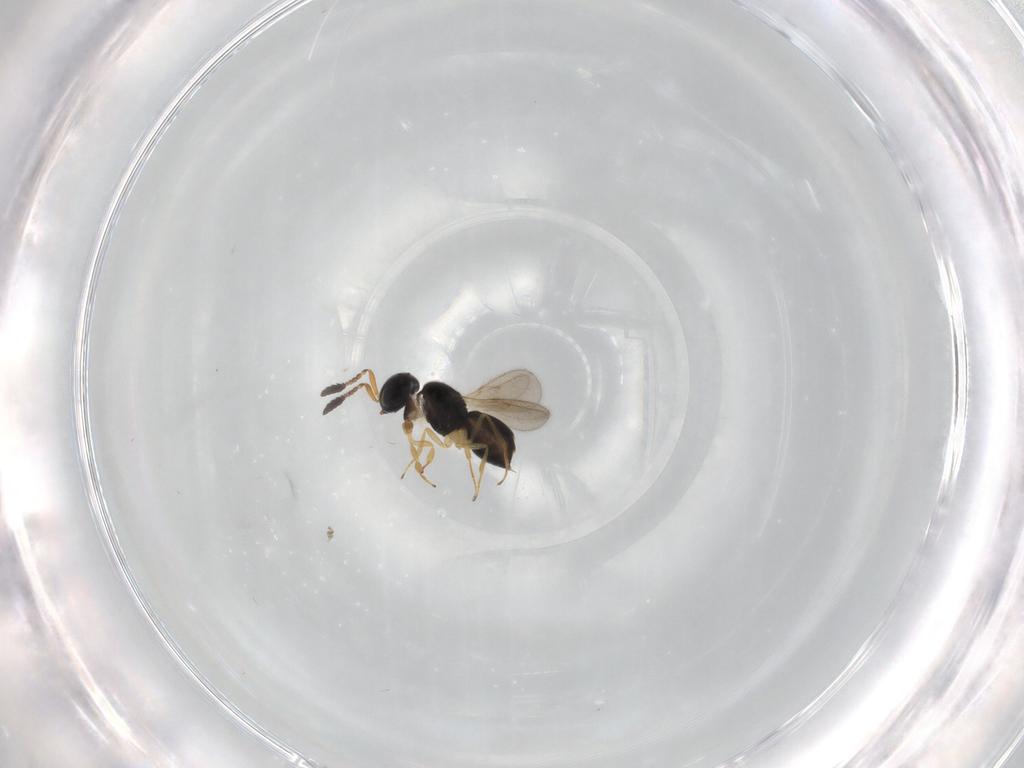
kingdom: Animalia
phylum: Arthropoda
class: Insecta
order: Hymenoptera
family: Scelionidae
